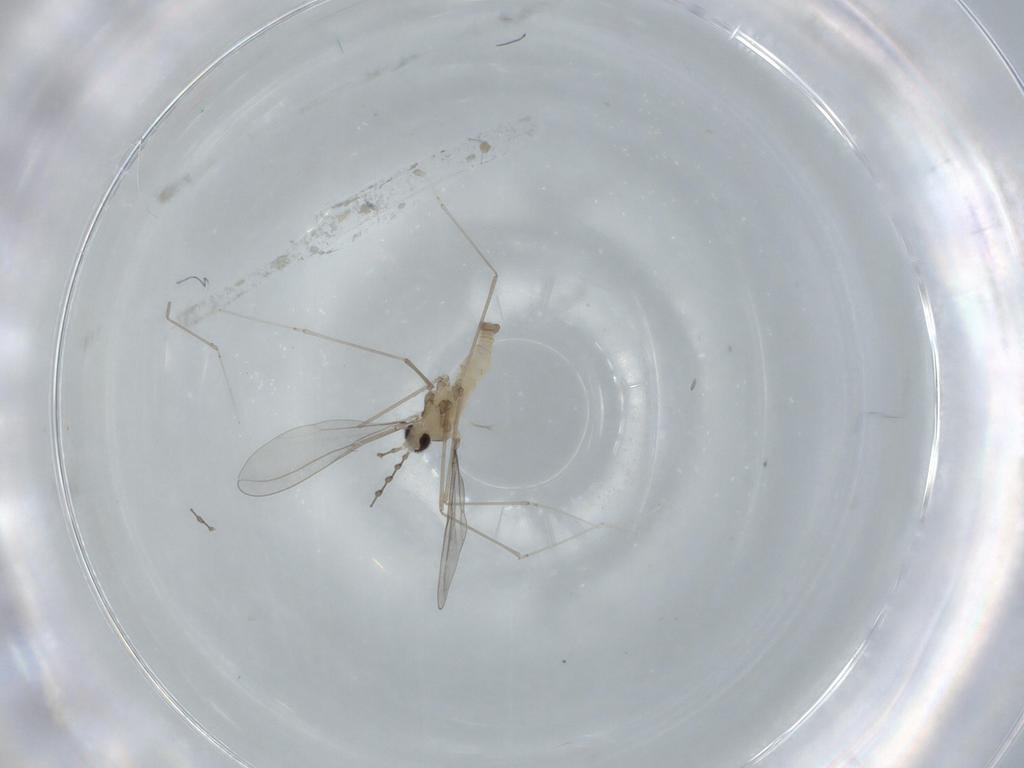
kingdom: Animalia
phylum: Arthropoda
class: Insecta
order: Diptera
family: Cecidomyiidae
